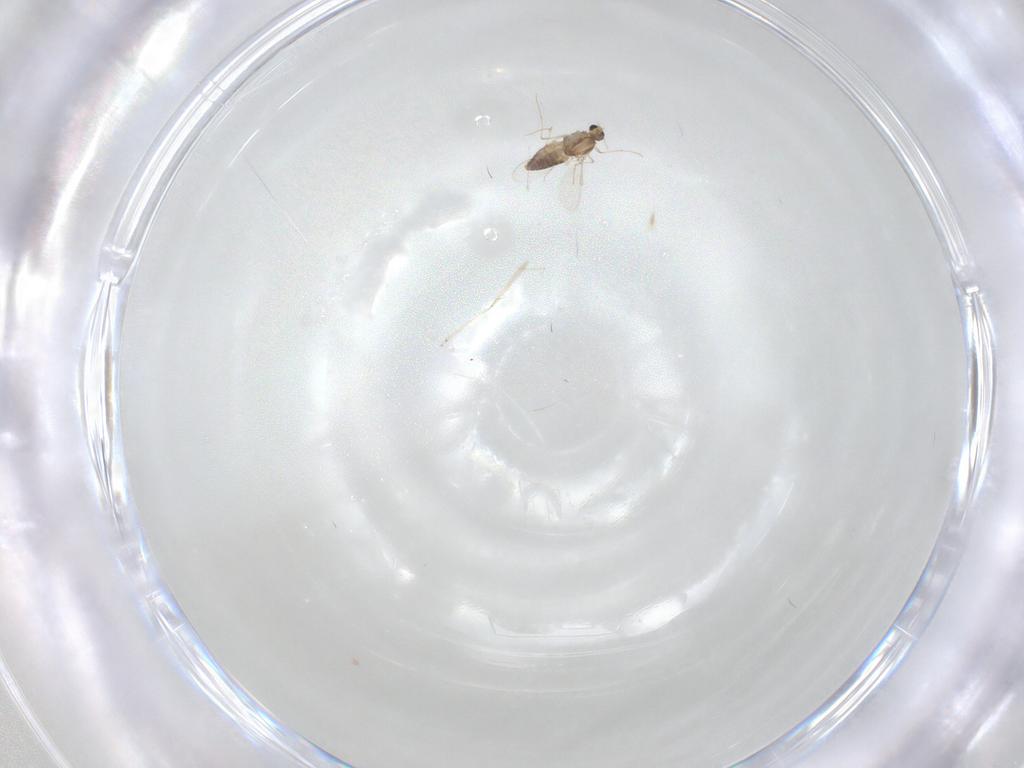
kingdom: Animalia
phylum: Arthropoda
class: Insecta
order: Diptera
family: Chironomidae
